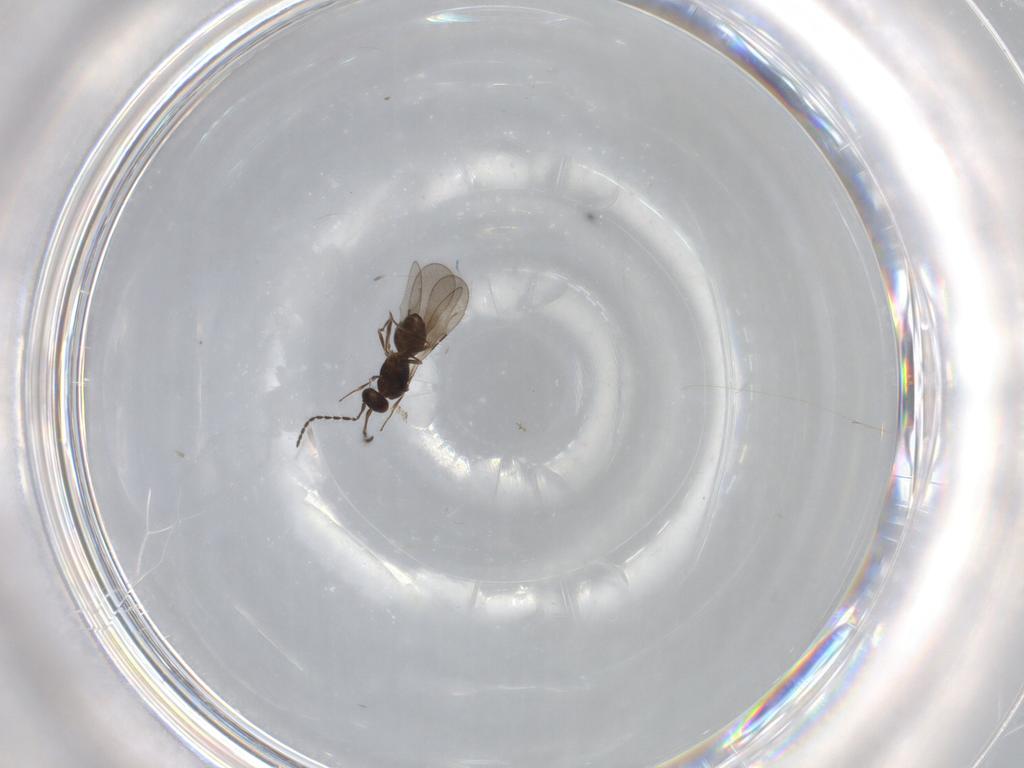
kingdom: Animalia
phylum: Arthropoda
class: Insecta
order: Hymenoptera
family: Ceraphronidae
